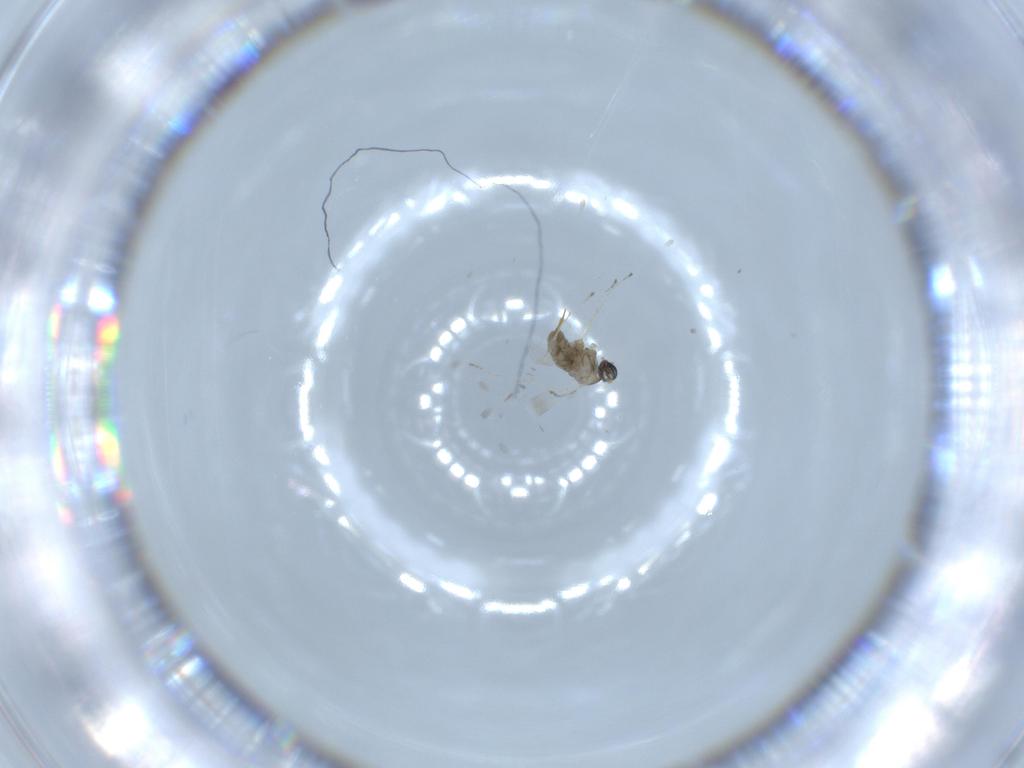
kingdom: Animalia
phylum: Arthropoda
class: Insecta
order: Diptera
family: Cecidomyiidae
